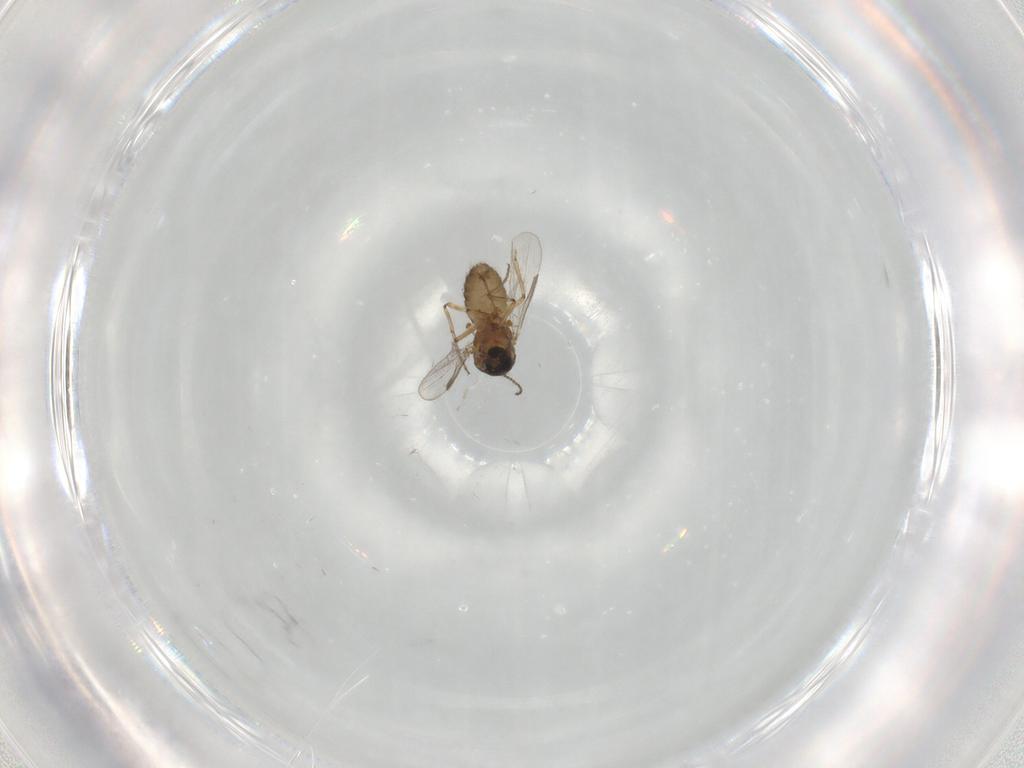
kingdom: Animalia
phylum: Arthropoda
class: Insecta
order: Diptera
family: Ceratopogonidae
